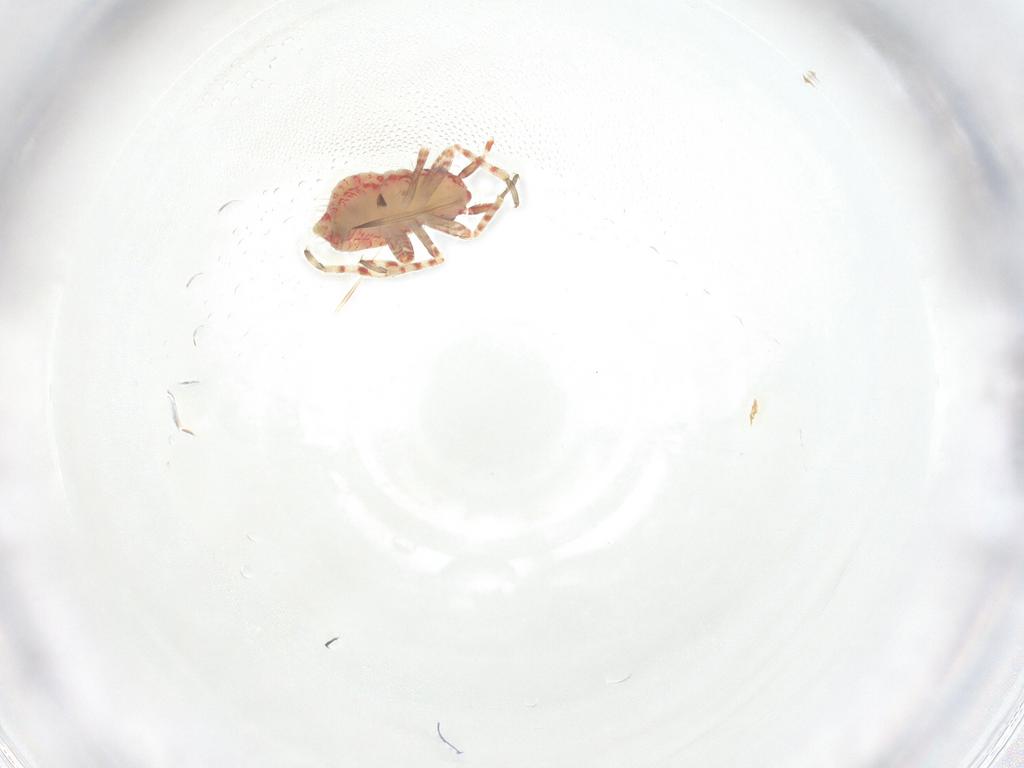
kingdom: Animalia
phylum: Arthropoda
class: Insecta
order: Hemiptera
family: Miridae
